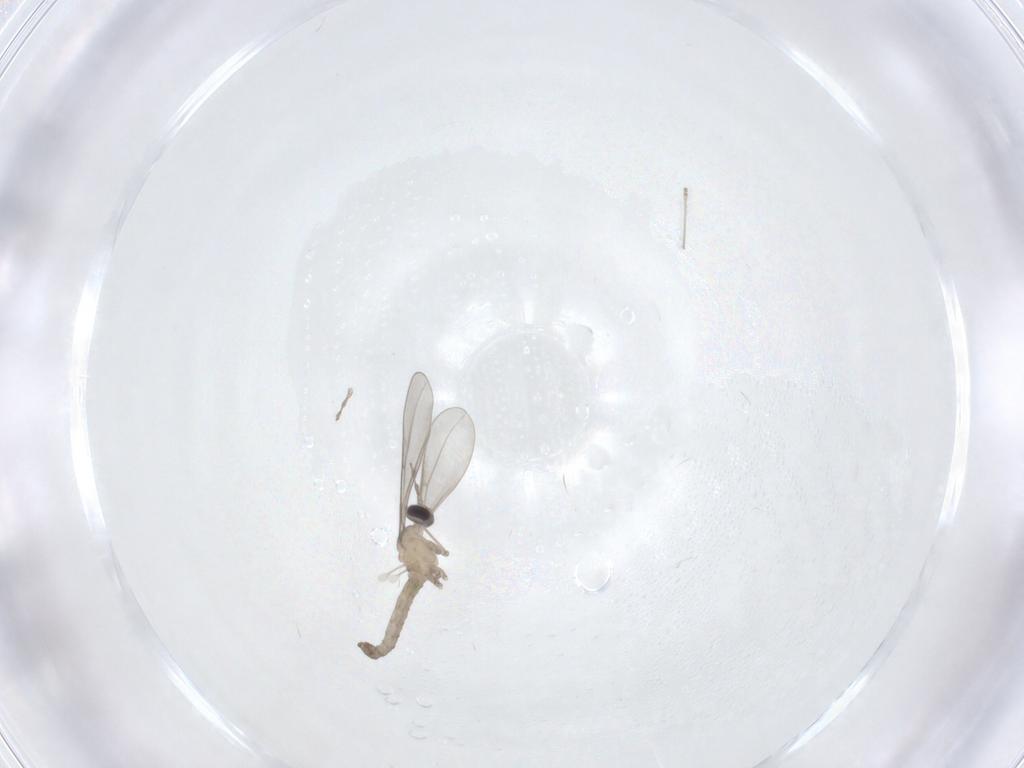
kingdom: Animalia
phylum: Arthropoda
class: Insecta
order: Diptera
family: Cecidomyiidae
